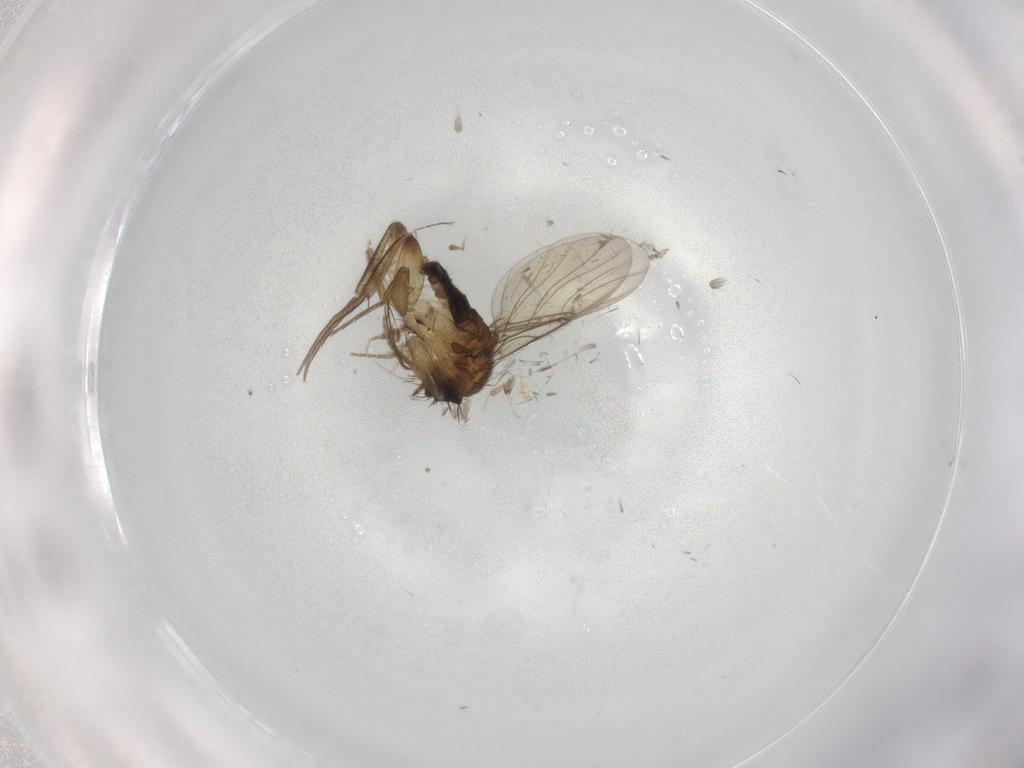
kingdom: Animalia
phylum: Arthropoda
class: Insecta
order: Diptera
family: Phoridae
